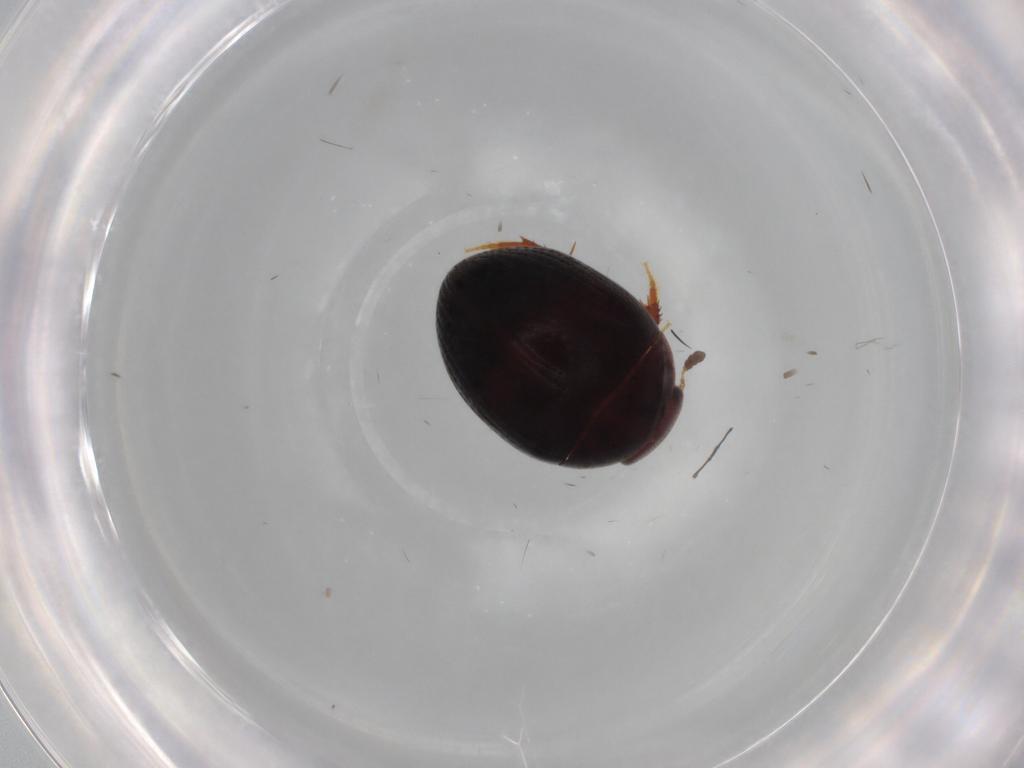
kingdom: Animalia
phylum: Arthropoda
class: Insecta
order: Coleoptera
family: Hydrophilidae
